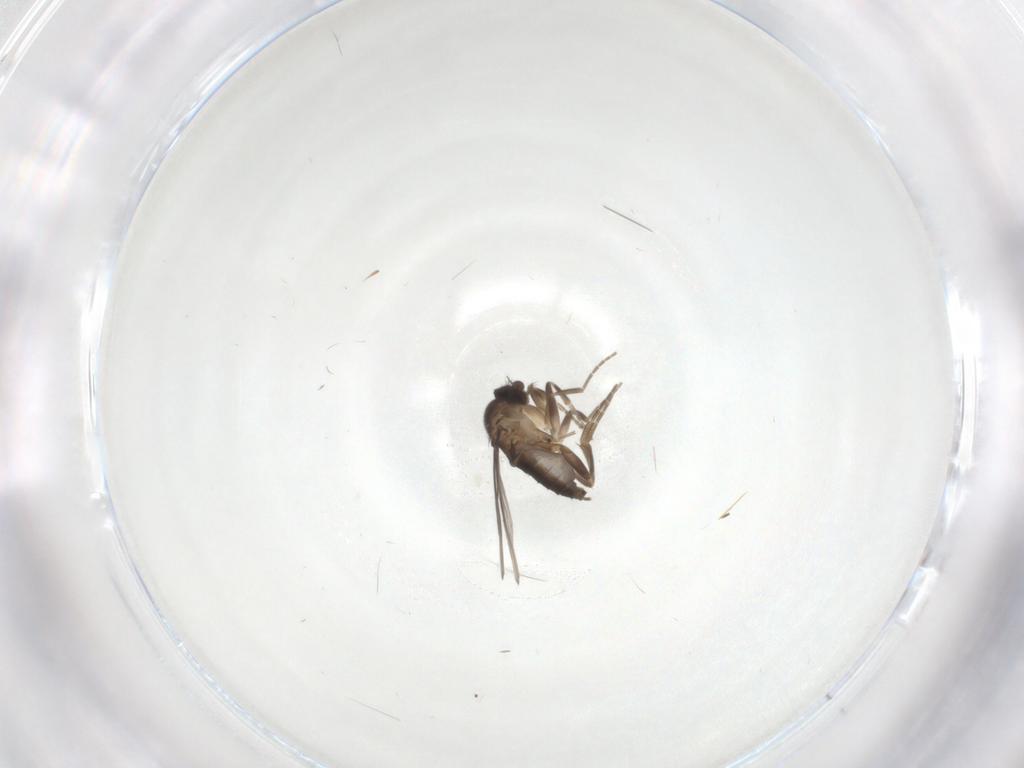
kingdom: Animalia
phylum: Arthropoda
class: Insecta
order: Diptera
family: Phoridae
